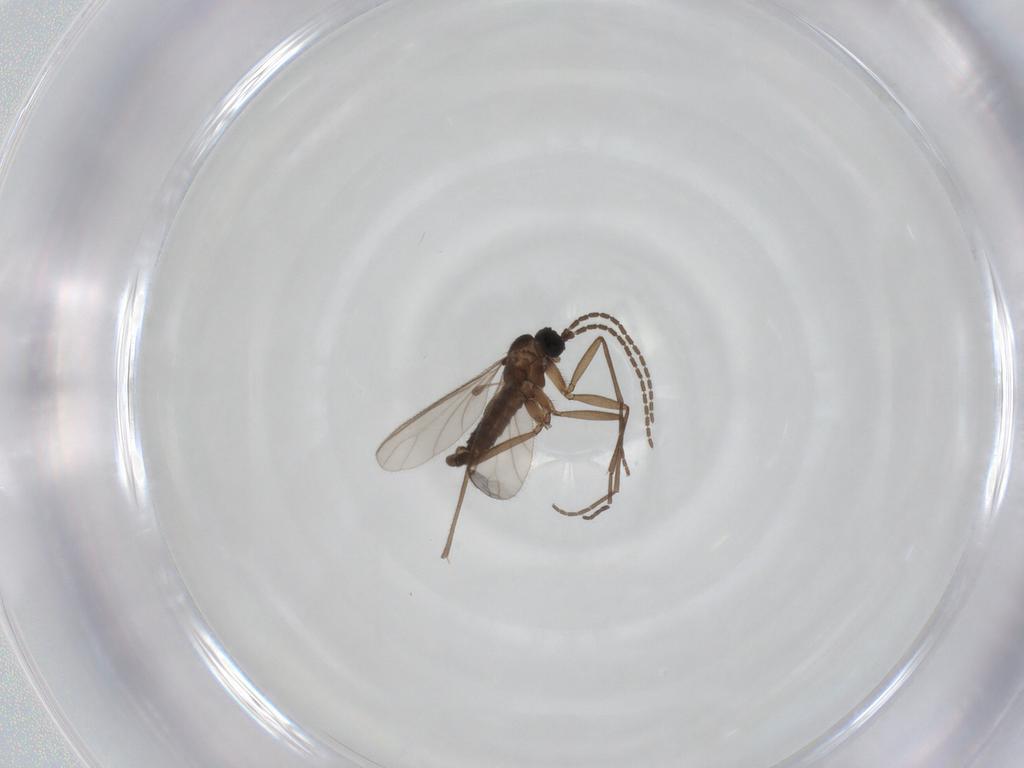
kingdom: Animalia
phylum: Arthropoda
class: Insecta
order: Diptera
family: Sciaridae
